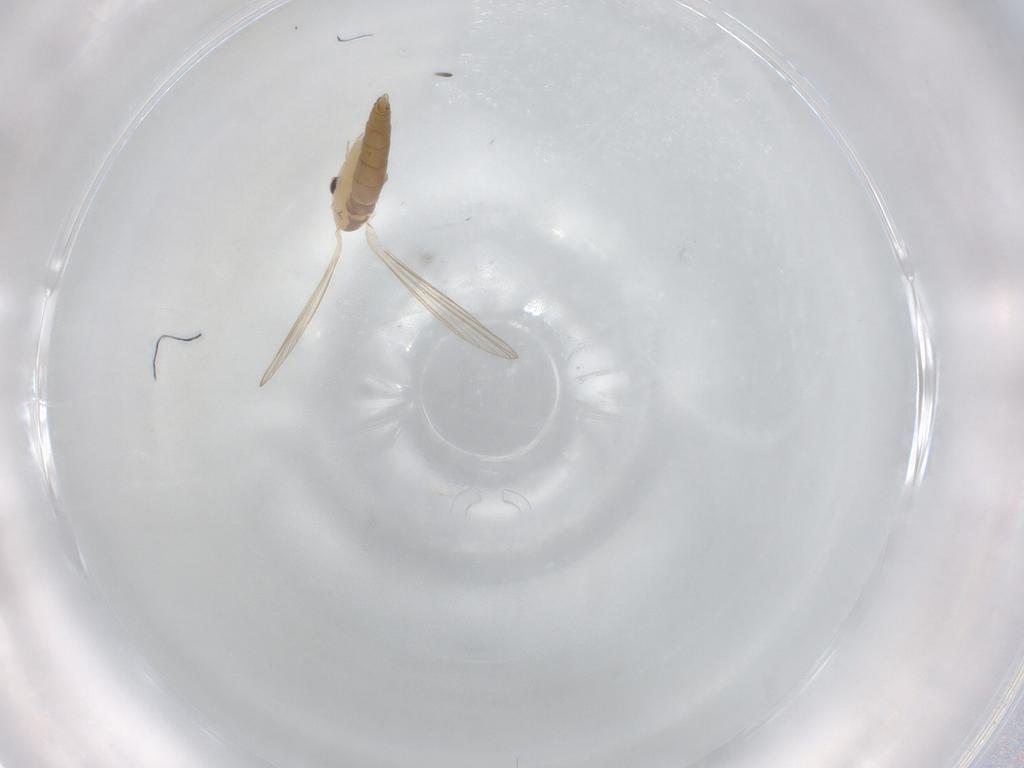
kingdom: Animalia
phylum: Arthropoda
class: Insecta
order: Diptera
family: Psychodidae
